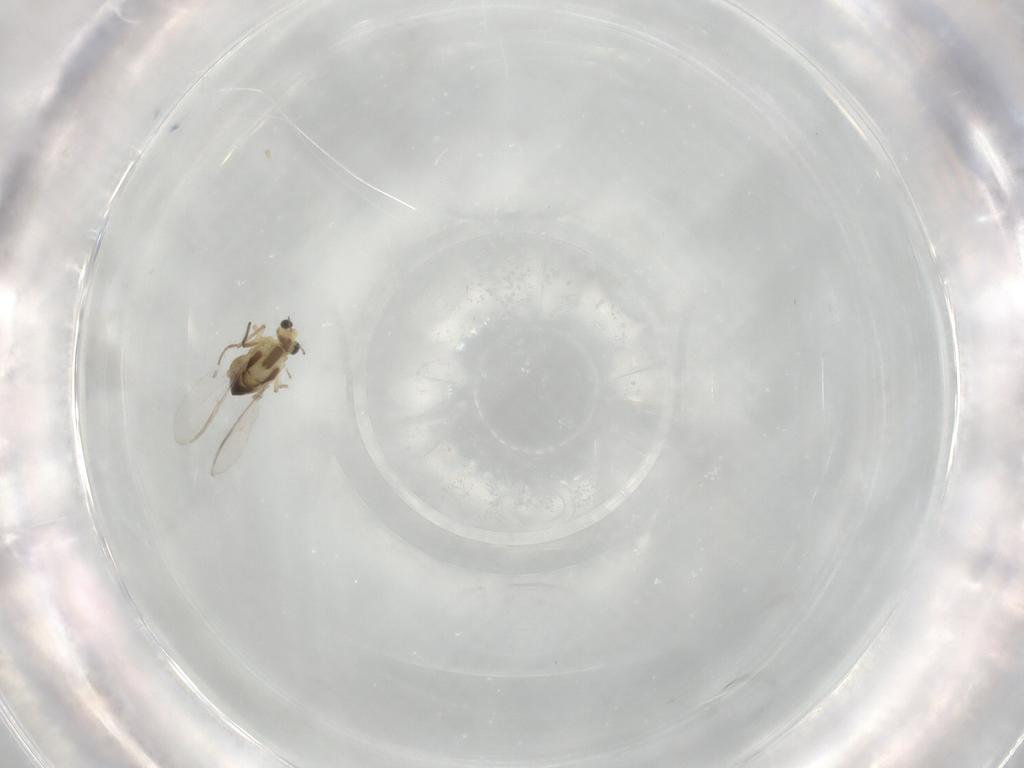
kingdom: Animalia
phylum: Arthropoda
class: Insecta
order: Diptera
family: Chironomidae
